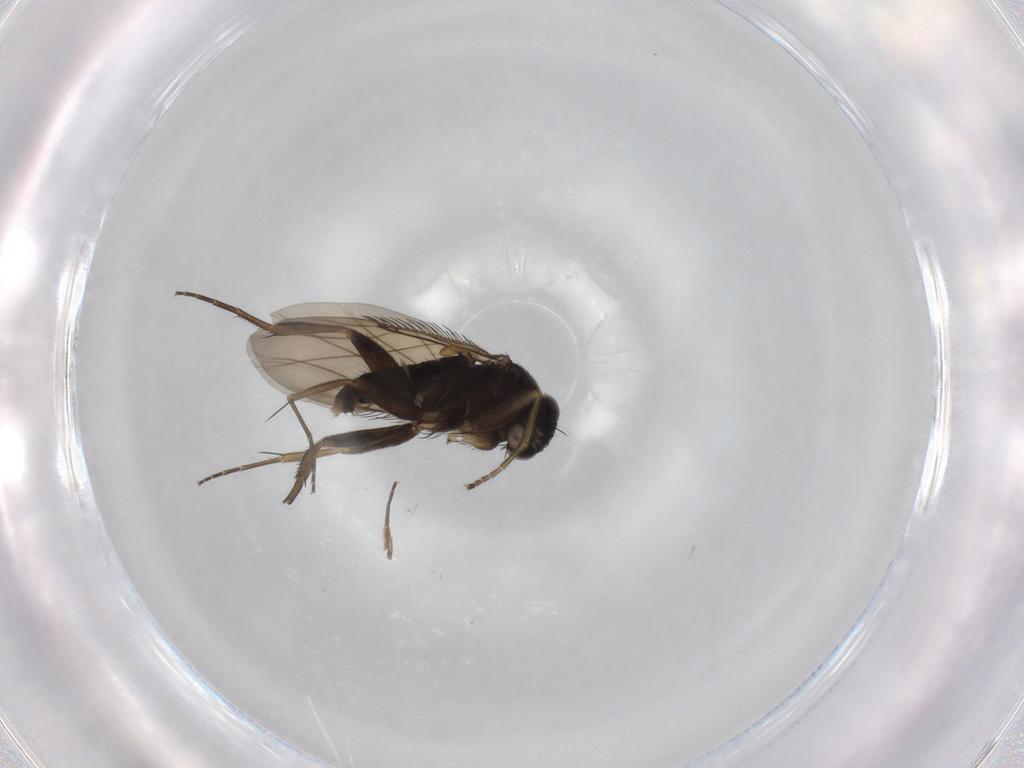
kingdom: Animalia
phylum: Arthropoda
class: Insecta
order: Diptera
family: Phoridae
